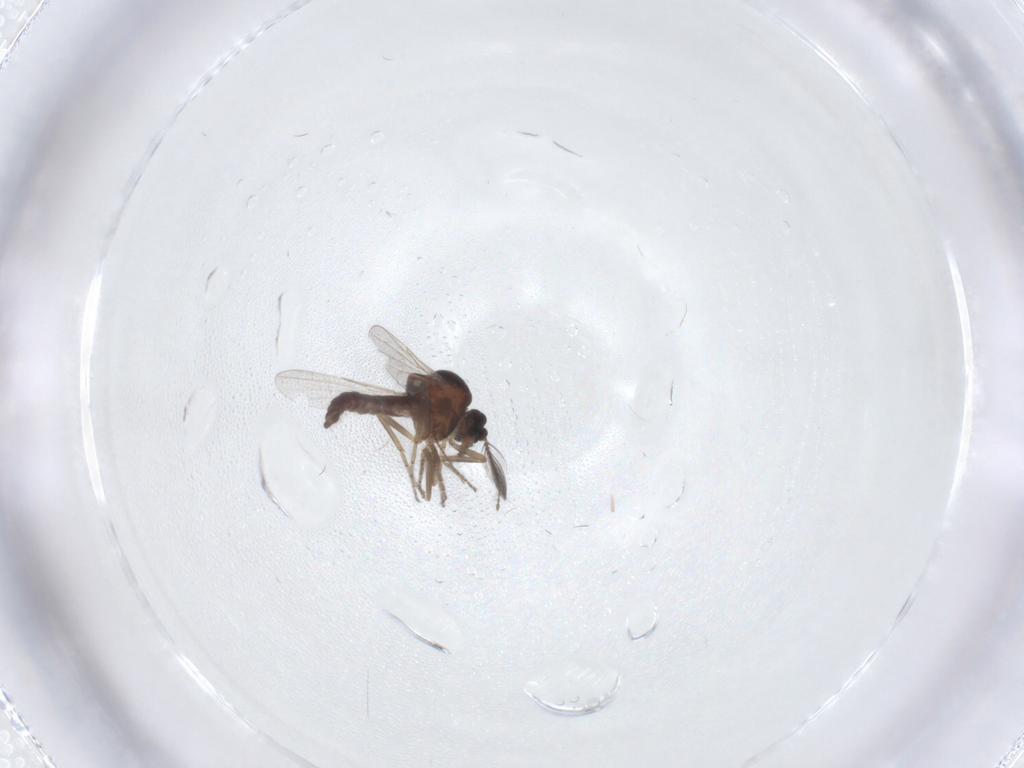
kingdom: Animalia
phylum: Arthropoda
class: Insecta
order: Diptera
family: Ceratopogonidae
